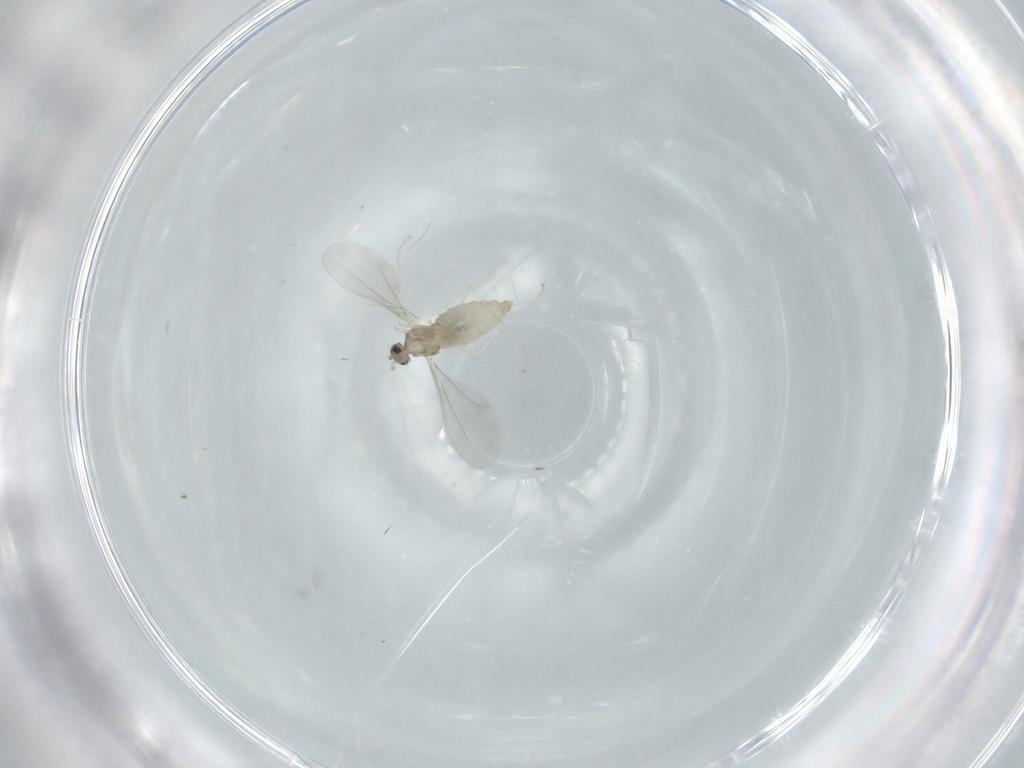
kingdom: Animalia
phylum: Arthropoda
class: Insecta
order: Diptera
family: Cecidomyiidae
